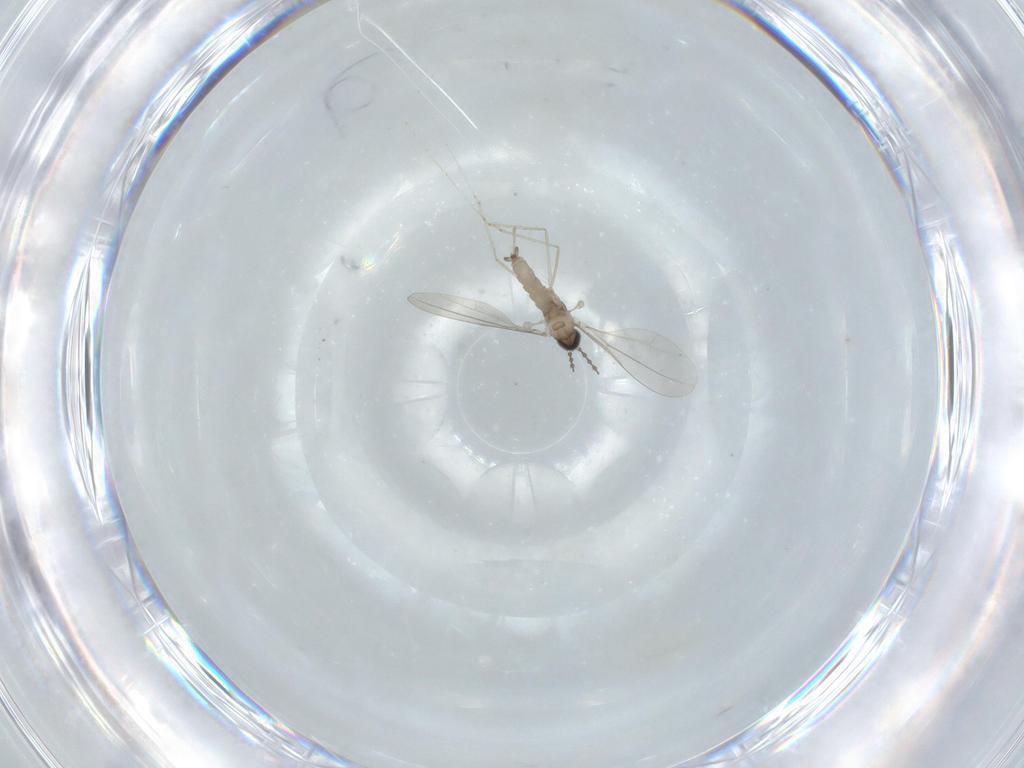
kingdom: Animalia
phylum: Arthropoda
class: Insecta
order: Diptera
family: Cecidomyiidae
